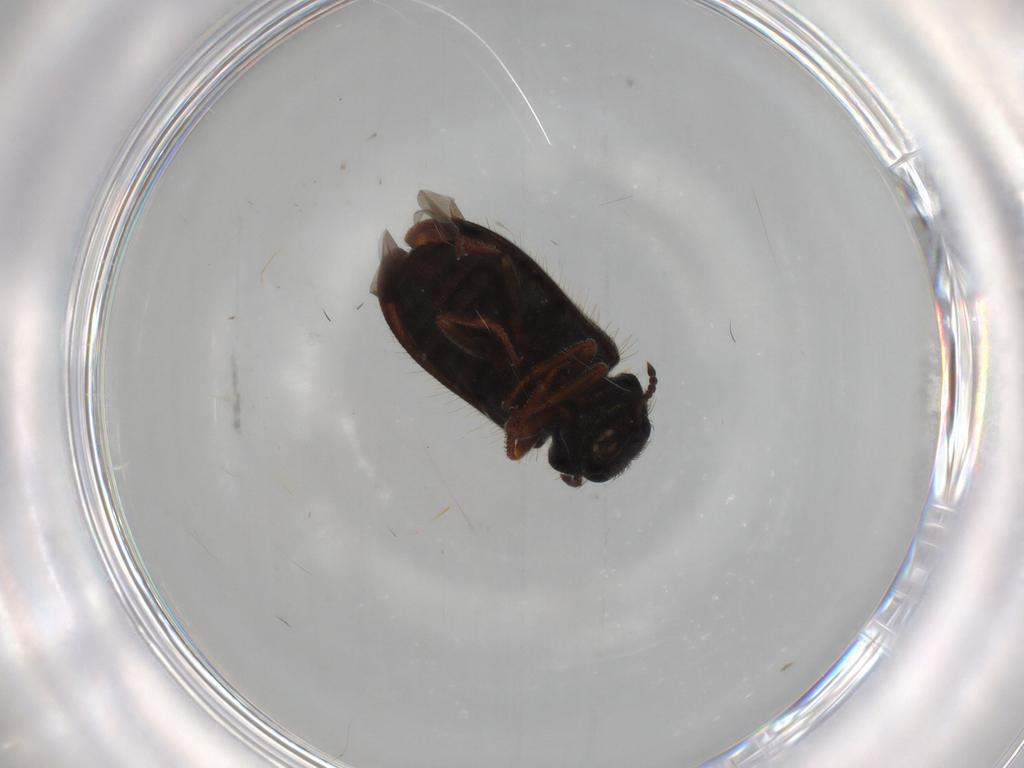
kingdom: Animalia
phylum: Arthropoda
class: Insecta
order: Coleoptera
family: Melyridae
